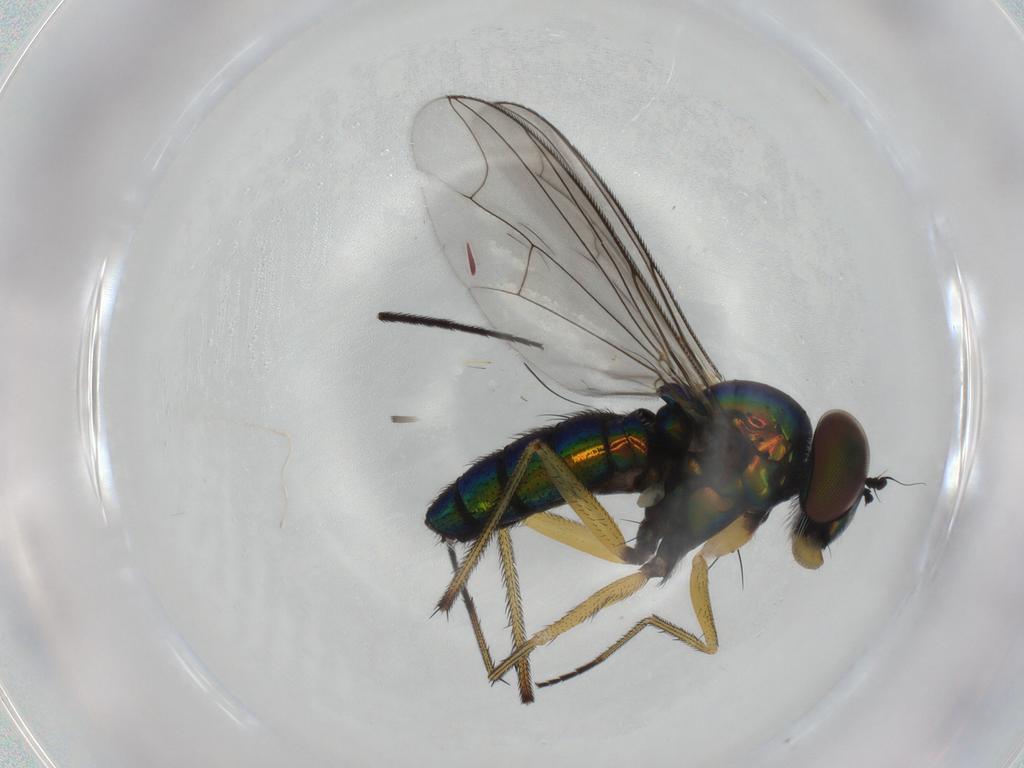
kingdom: Animalia
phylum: Arthropoda
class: Insecta
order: Diptera
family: Dolichopodidae
